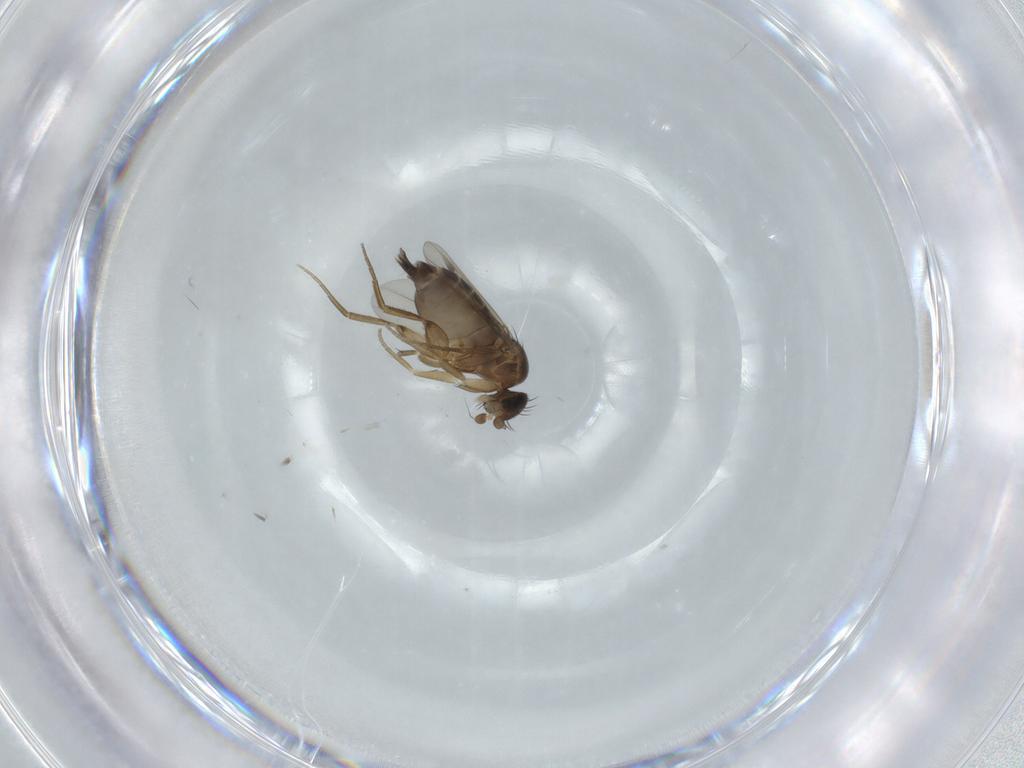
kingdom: Animalia
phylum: Arthropoda
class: Insecta
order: Diptera
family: Phoridae
